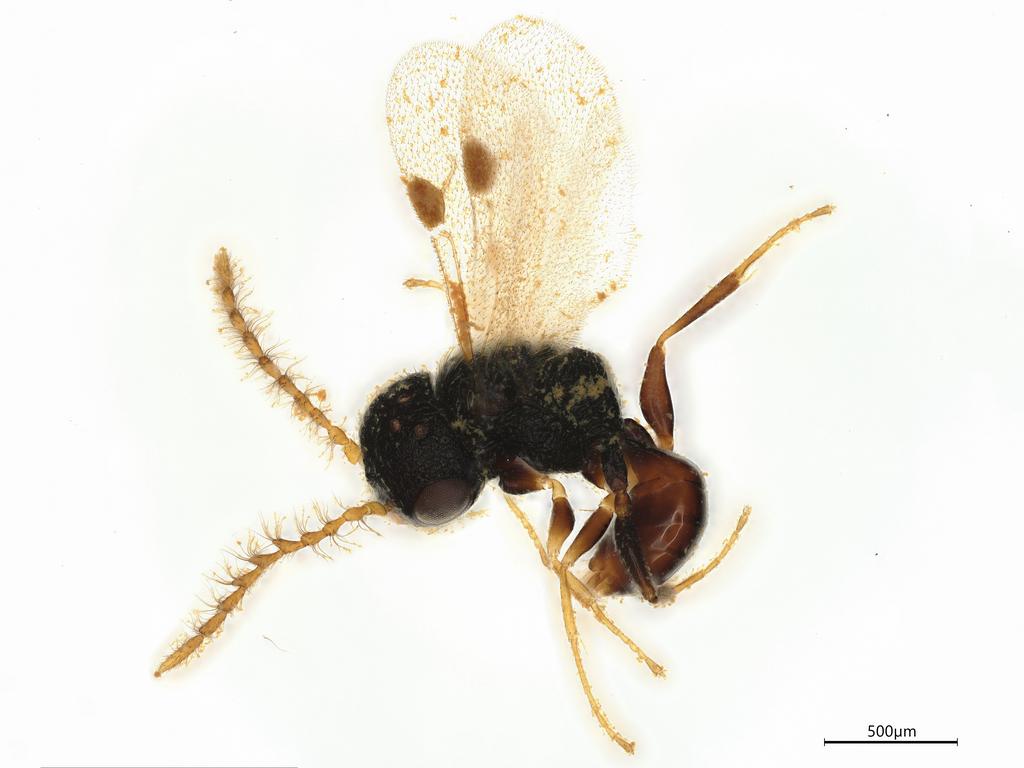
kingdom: Animalia
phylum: Arthropoda
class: Insecta
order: Hymenoptera
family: Dryinidae
